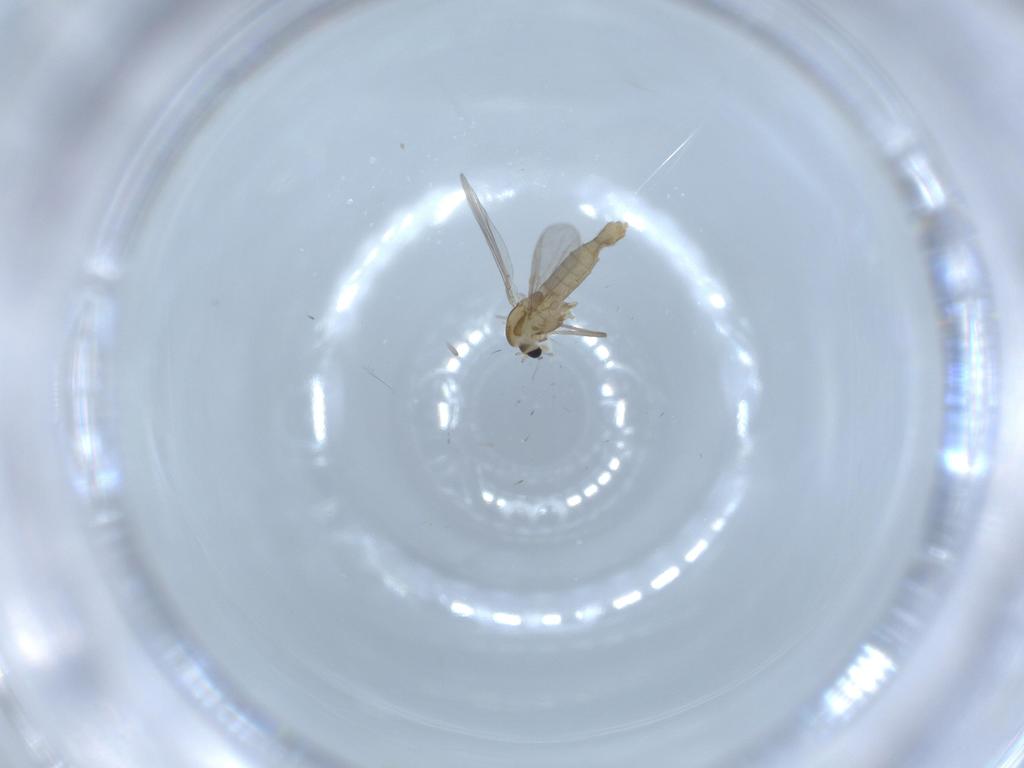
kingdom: Animalia
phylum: Arthropoda
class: Insecta
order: Diptera
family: Chironomidae
